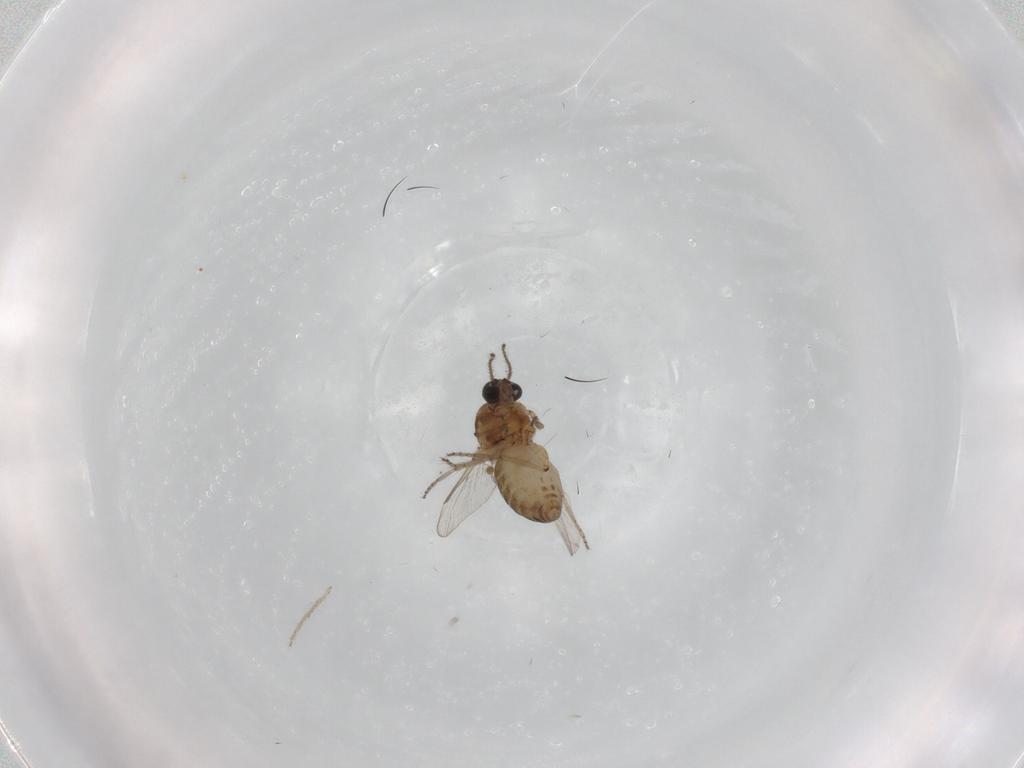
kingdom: Animalia
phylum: Arthropoda
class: Insecta
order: Diptera
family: Ceratopogonidae
